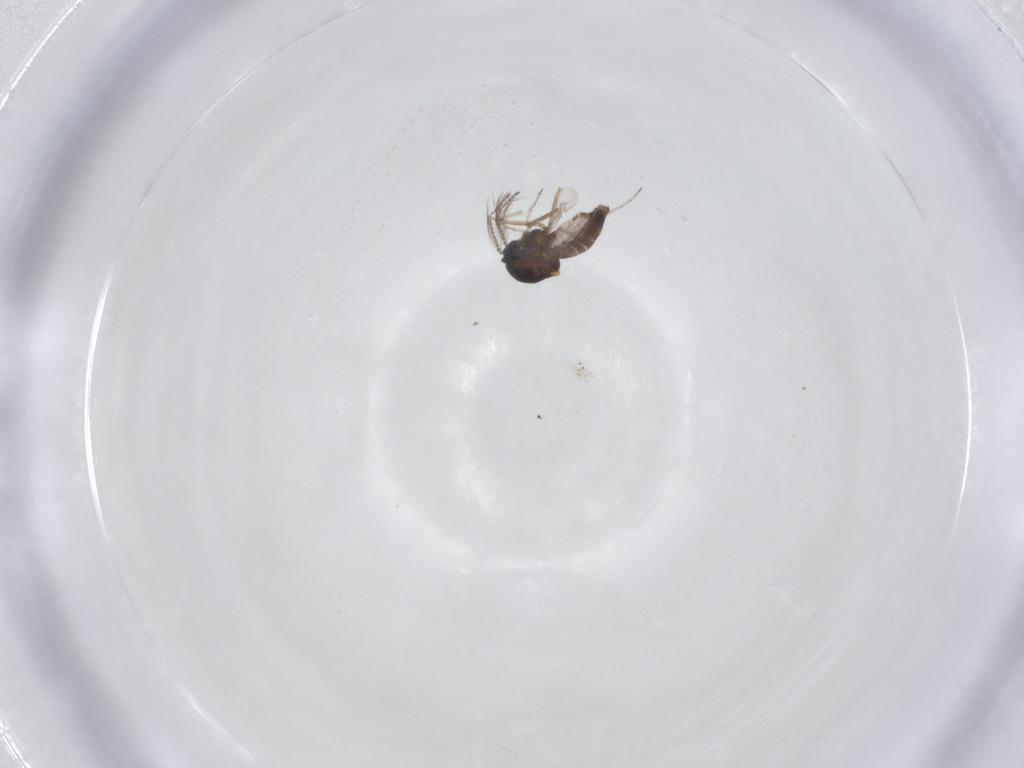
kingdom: Animalia
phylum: Arthropoda
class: Insecta
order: Diptera
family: Ceratopogonidae
